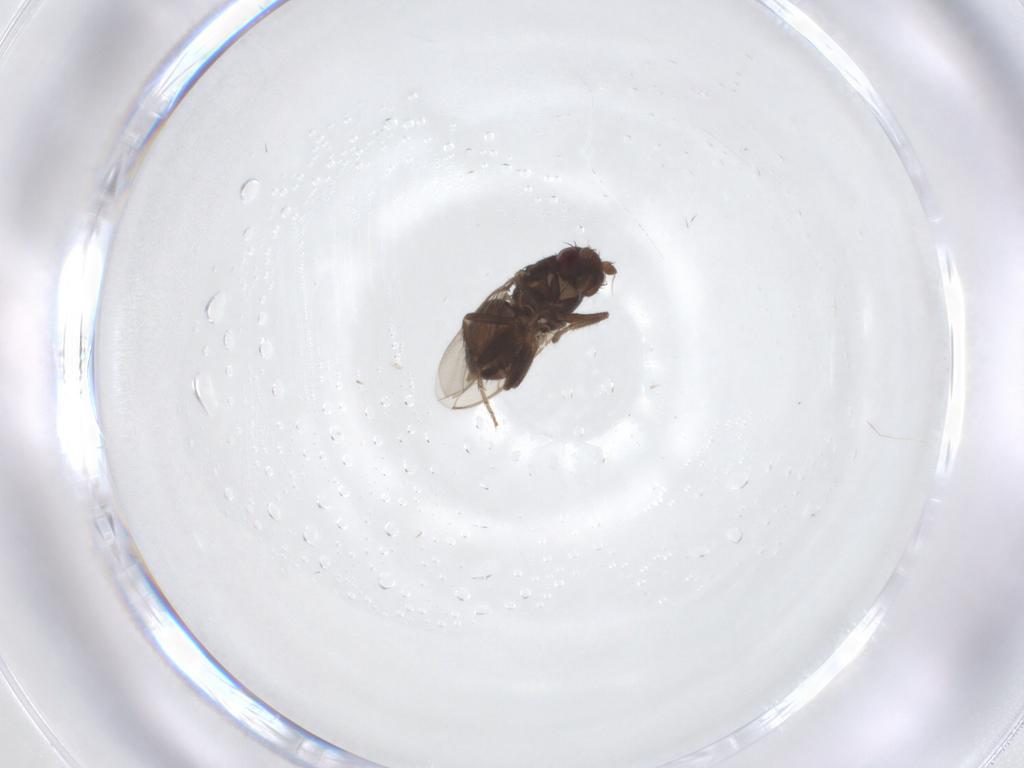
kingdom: Animalia
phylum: Arthropoda
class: Insecta
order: Diptera
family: Sphaeroceridae
